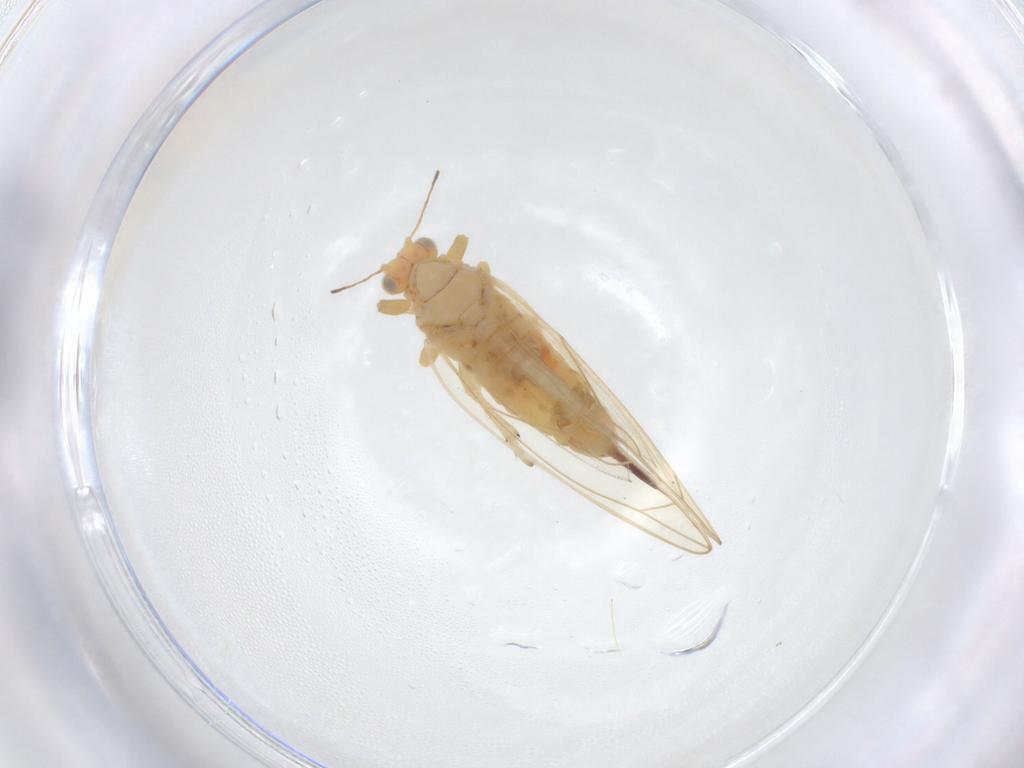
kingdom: Animalia
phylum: Arthropoda
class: Insecta
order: Hemiptera
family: Triozidae
